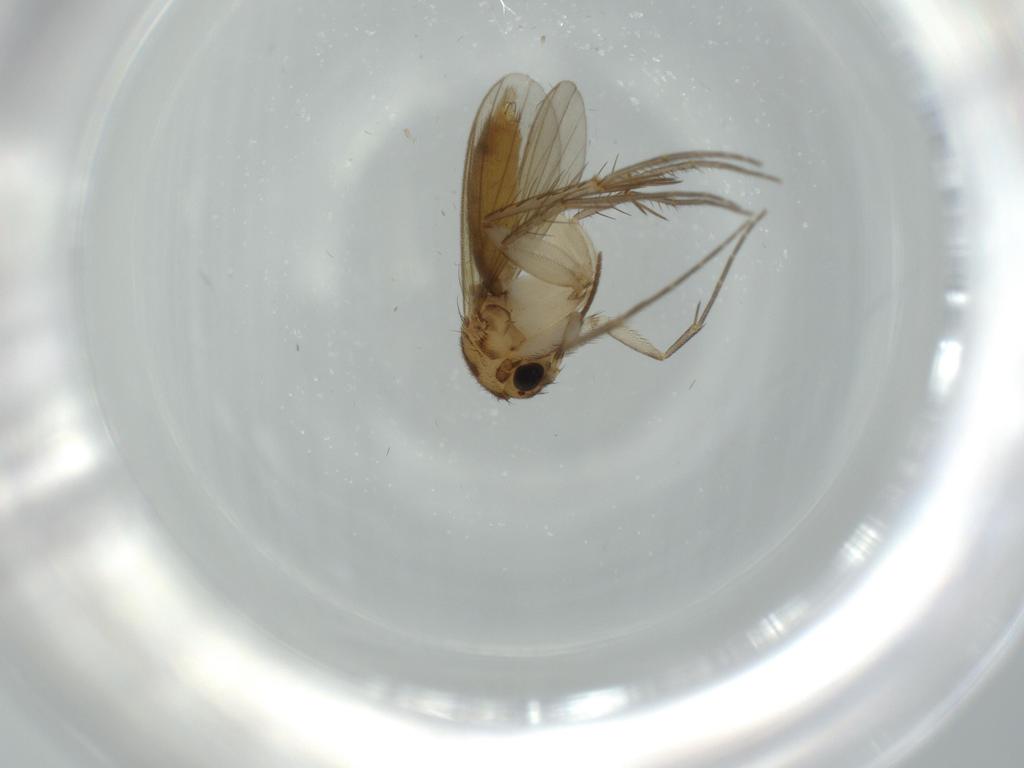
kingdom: Animalia
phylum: Arthropoda
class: Insecta
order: Diptera
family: Mycetophilidae
